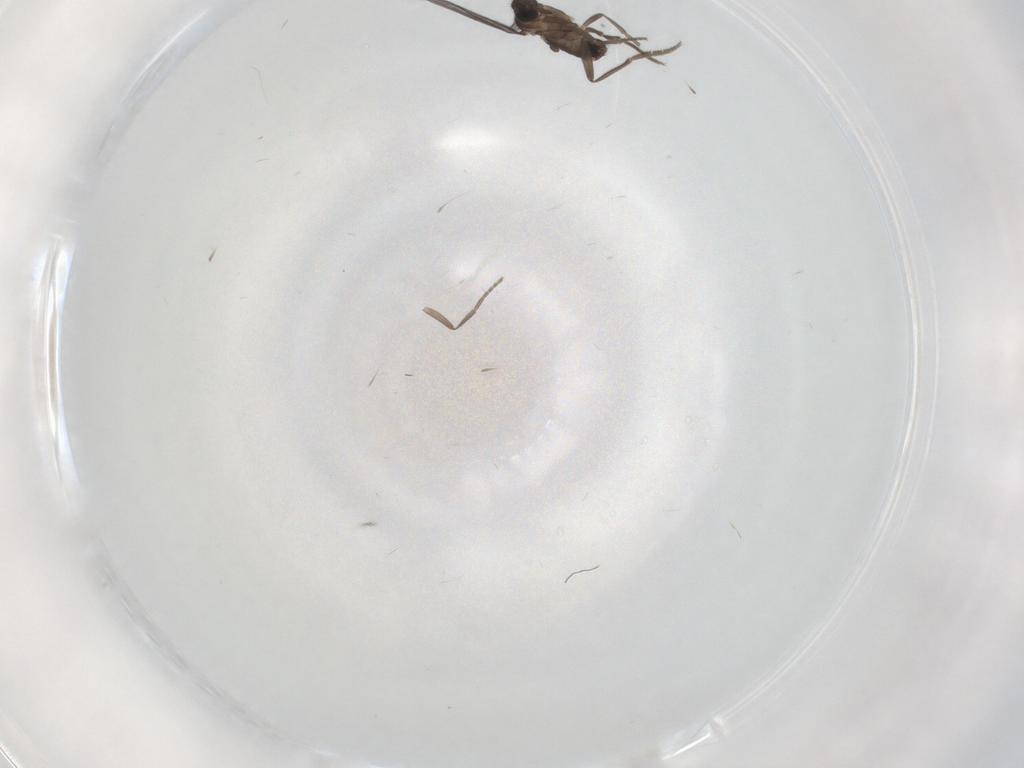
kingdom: Animalia
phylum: Arthropoda
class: Insecta
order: Diptera
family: Phoridae
